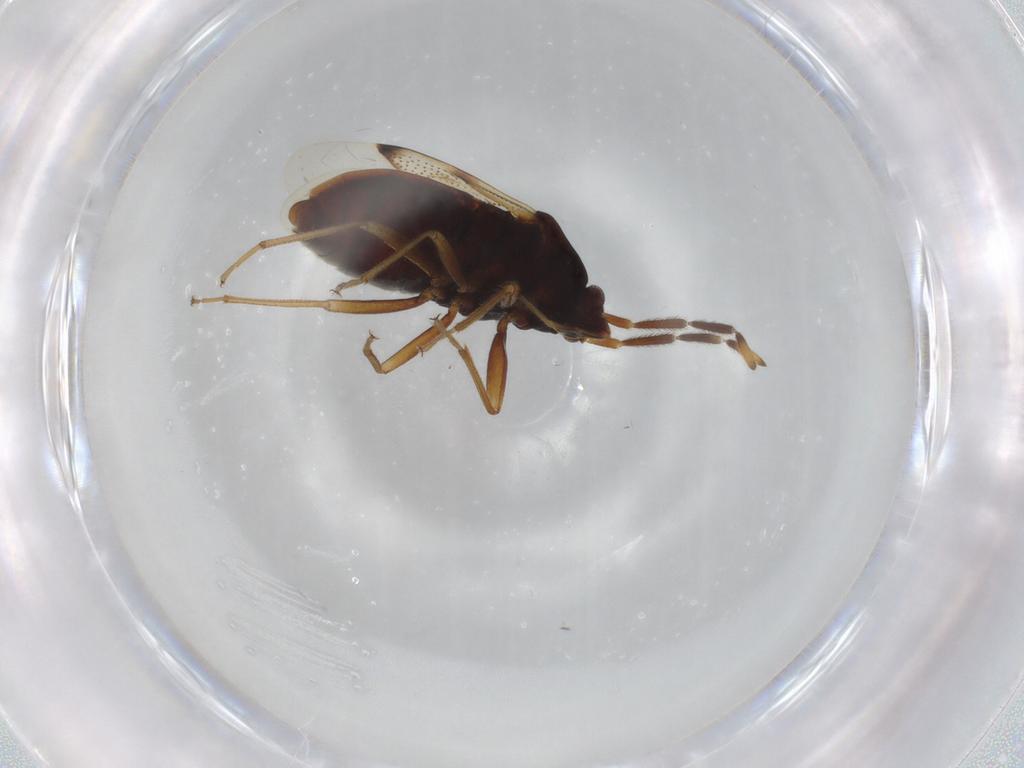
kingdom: Animalia
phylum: Arthropoda
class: Insecta
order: Hemiptera
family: Rhyparochromidae
